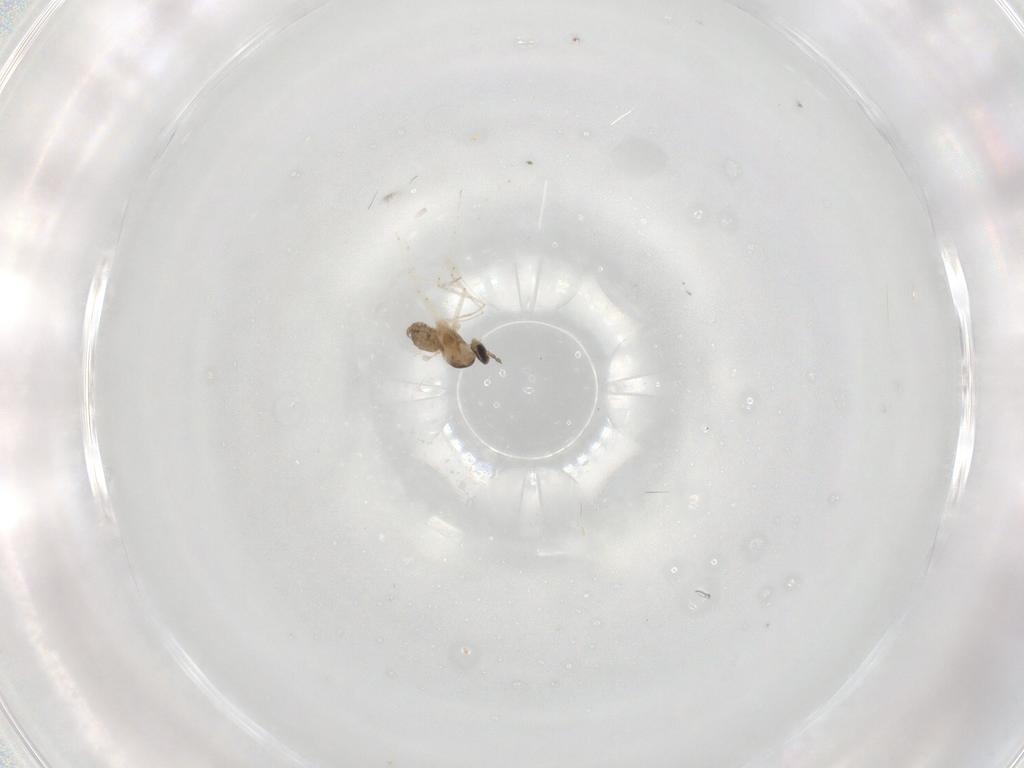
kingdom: Animalia
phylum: Arthropoda
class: Insecta
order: Diptera
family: Cecidomyiidae
